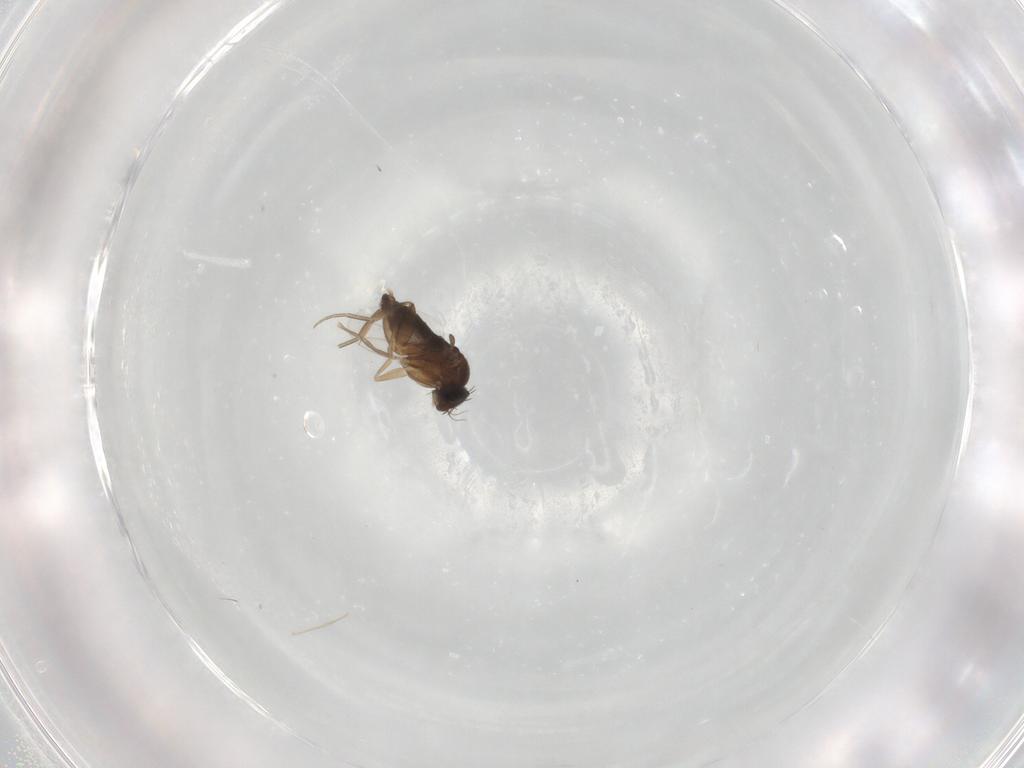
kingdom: Animalia
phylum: Arthropoda
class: Insecta
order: Diptera
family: Phoridae
